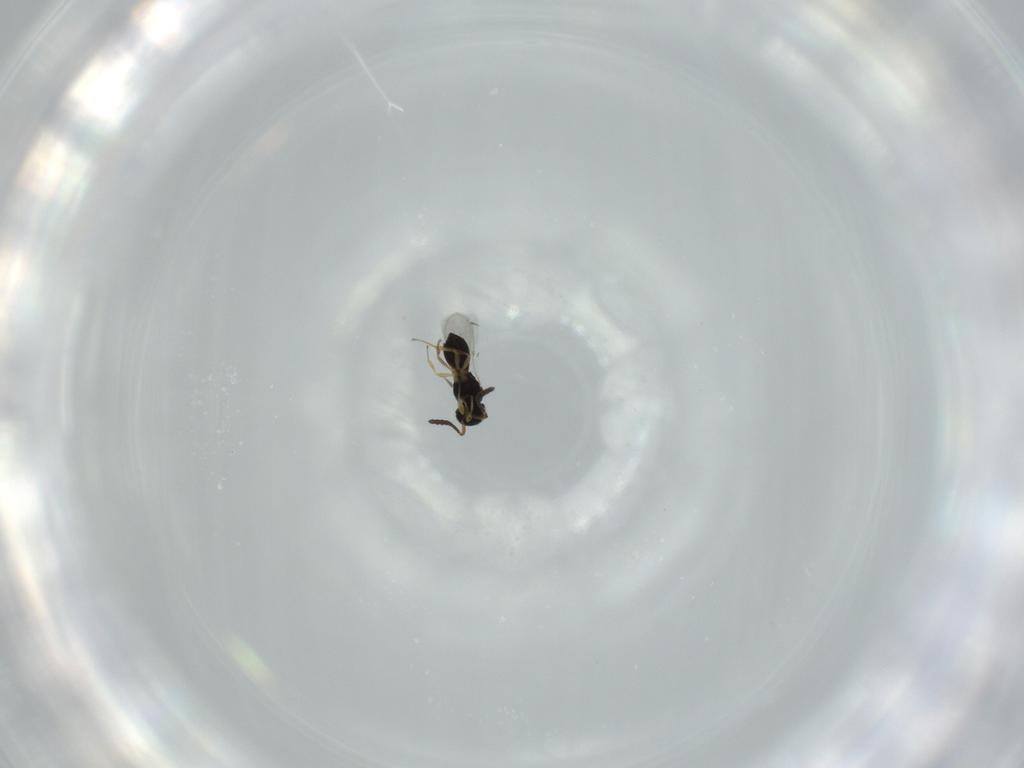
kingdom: Animalia
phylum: Arthropoda
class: Insecta
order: Hymenoptera
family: Scelionidae
